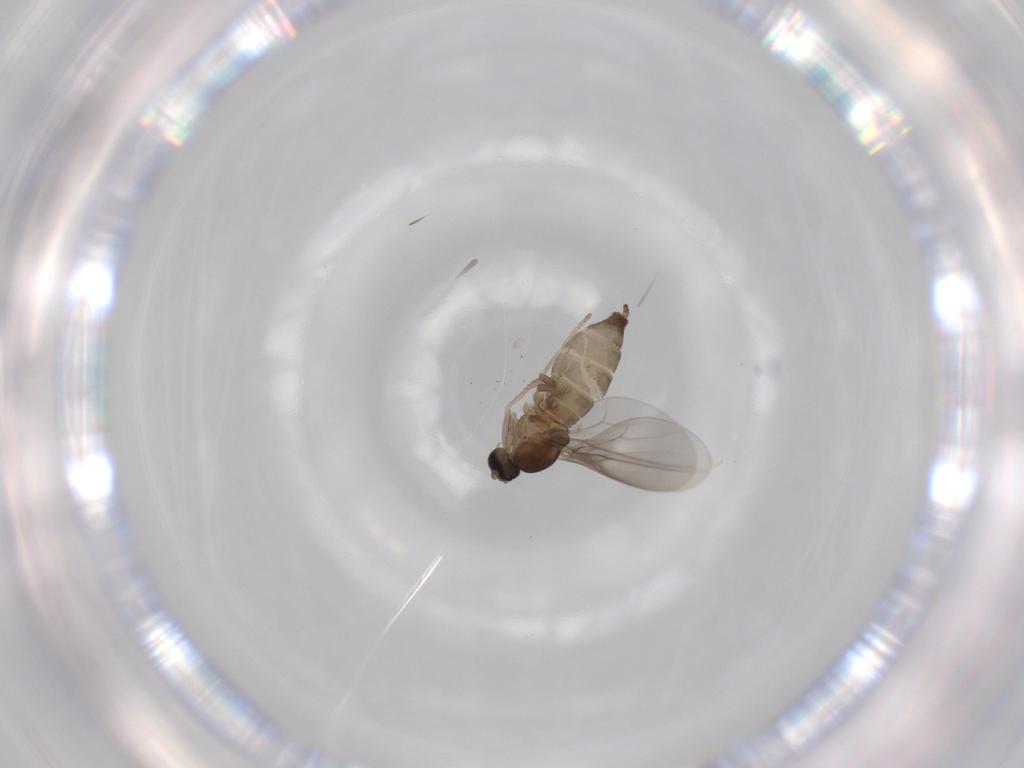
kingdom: Animalia
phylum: Arthropoda
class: Insecta
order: Diptera
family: Cecidomyiidae
